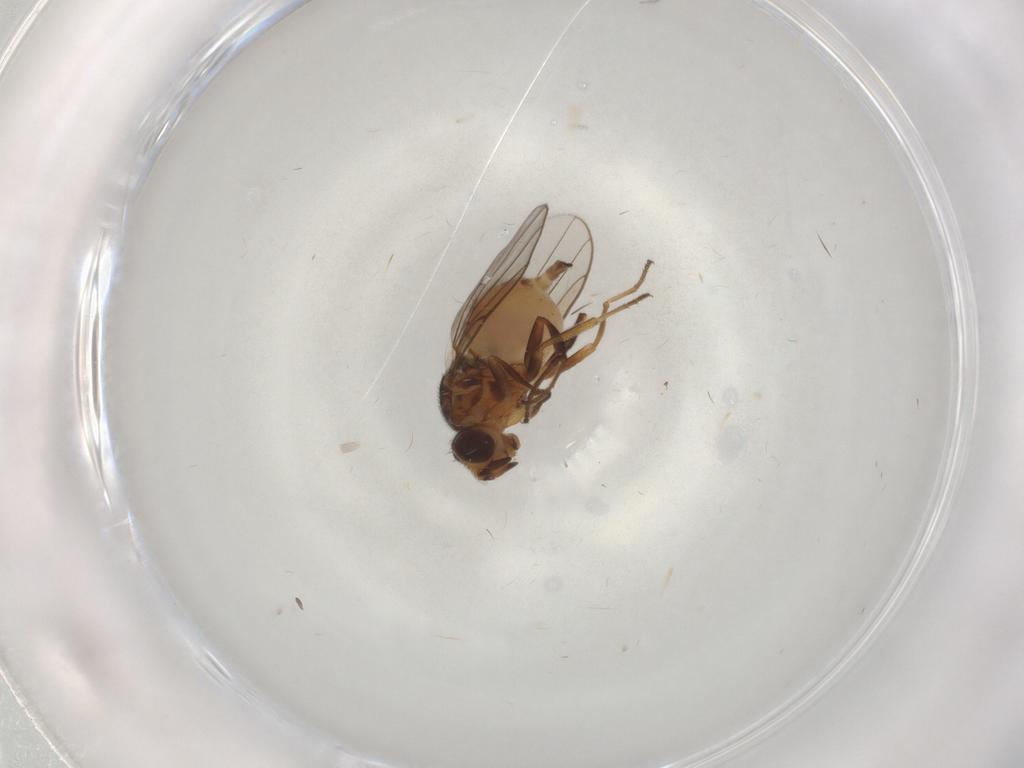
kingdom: Animalia
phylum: Arthropoda
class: Insecta
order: Diptera
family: Chloropidae
